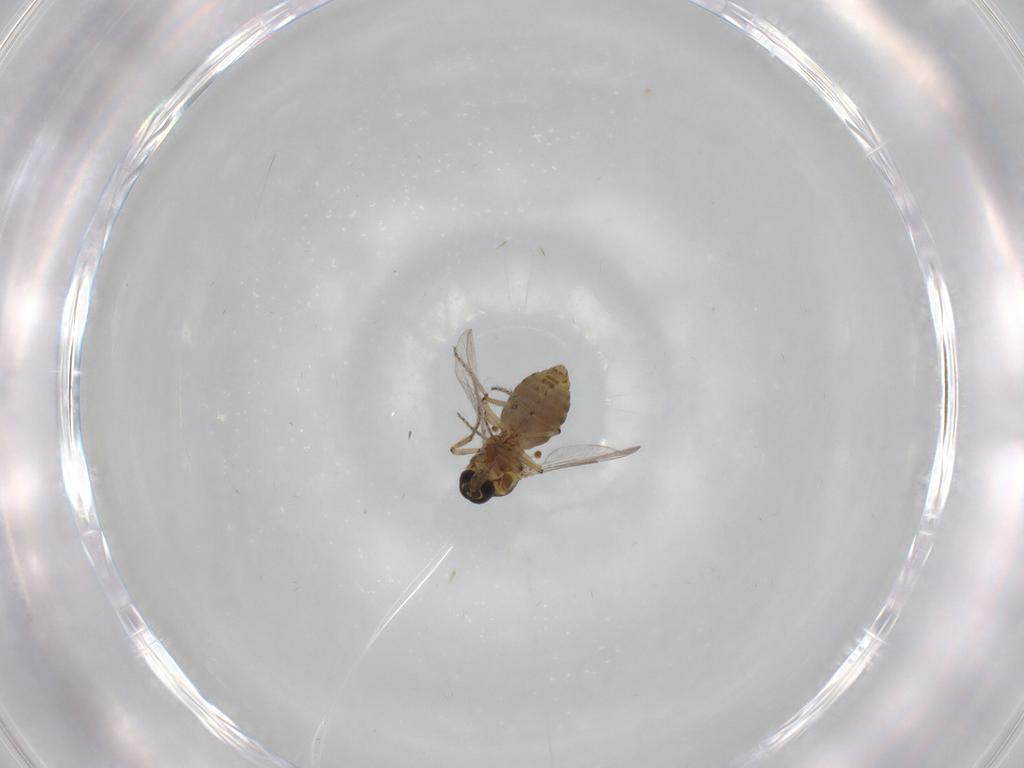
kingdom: Animalia
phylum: Arthropoda
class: Insecta
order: Diptera
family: Ceratopogonidae
